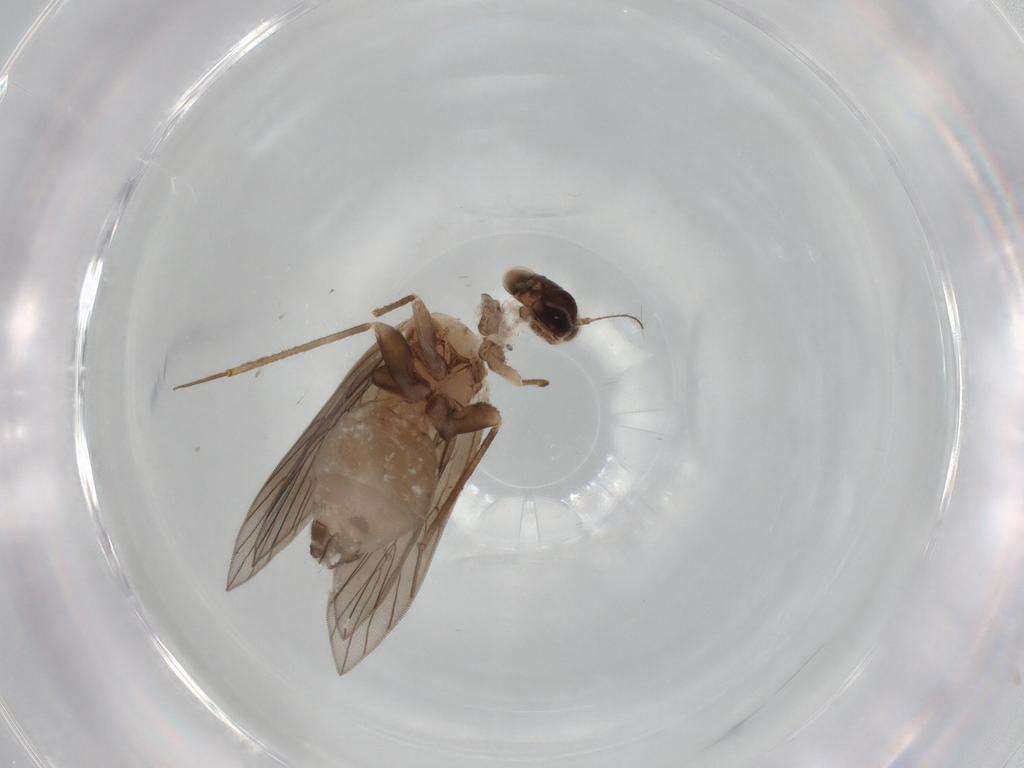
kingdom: Animalia
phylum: Arthropoda
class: Insecta
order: Psocodea
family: Lepidopsocidae
